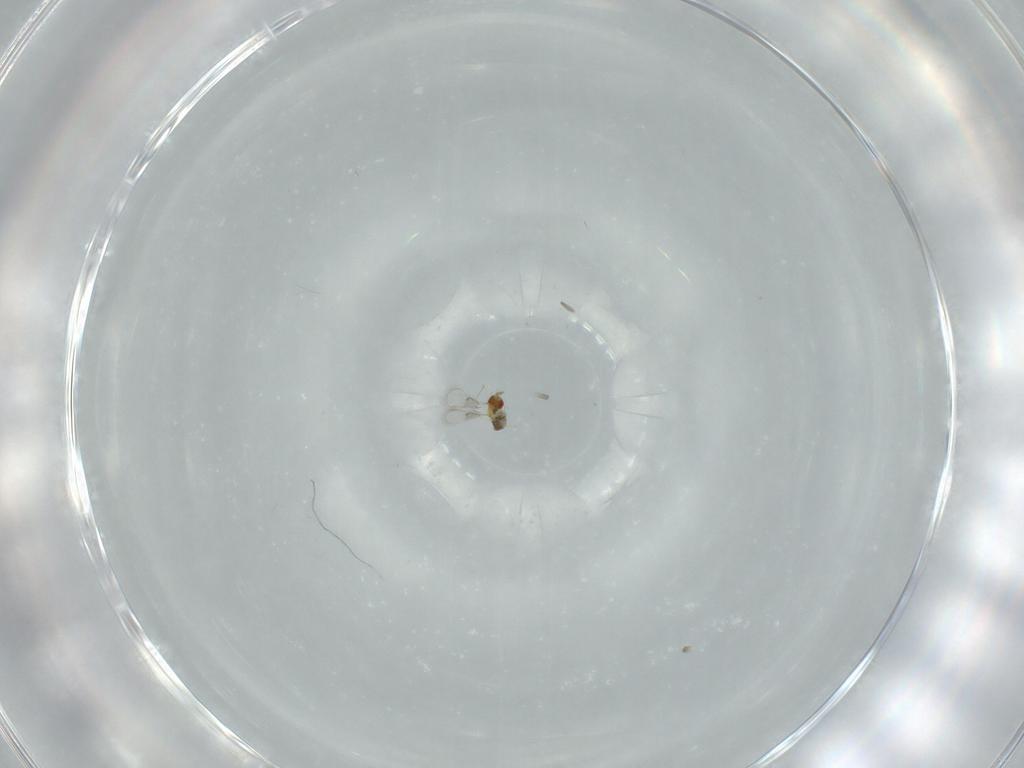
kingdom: Animalia
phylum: Arthropoda
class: Insecta
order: Hymenoptera
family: Trichogrammatidae
